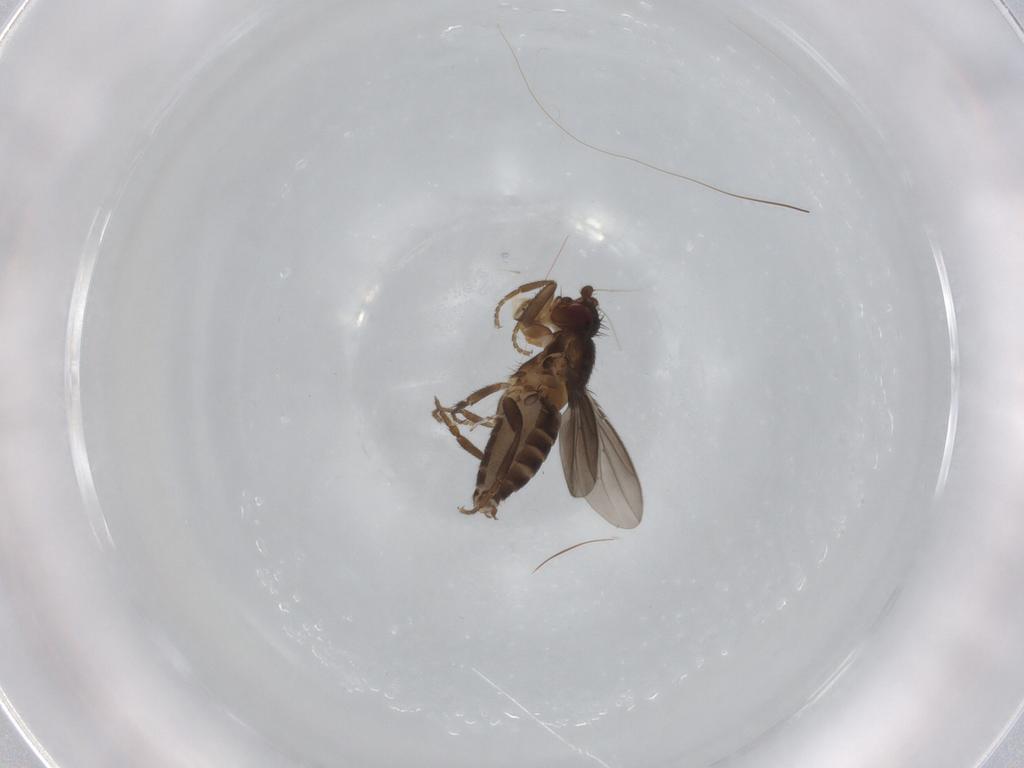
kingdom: Animalia
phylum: Arthropoda
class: Insecta
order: Diptera
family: Sphaeroceridae
